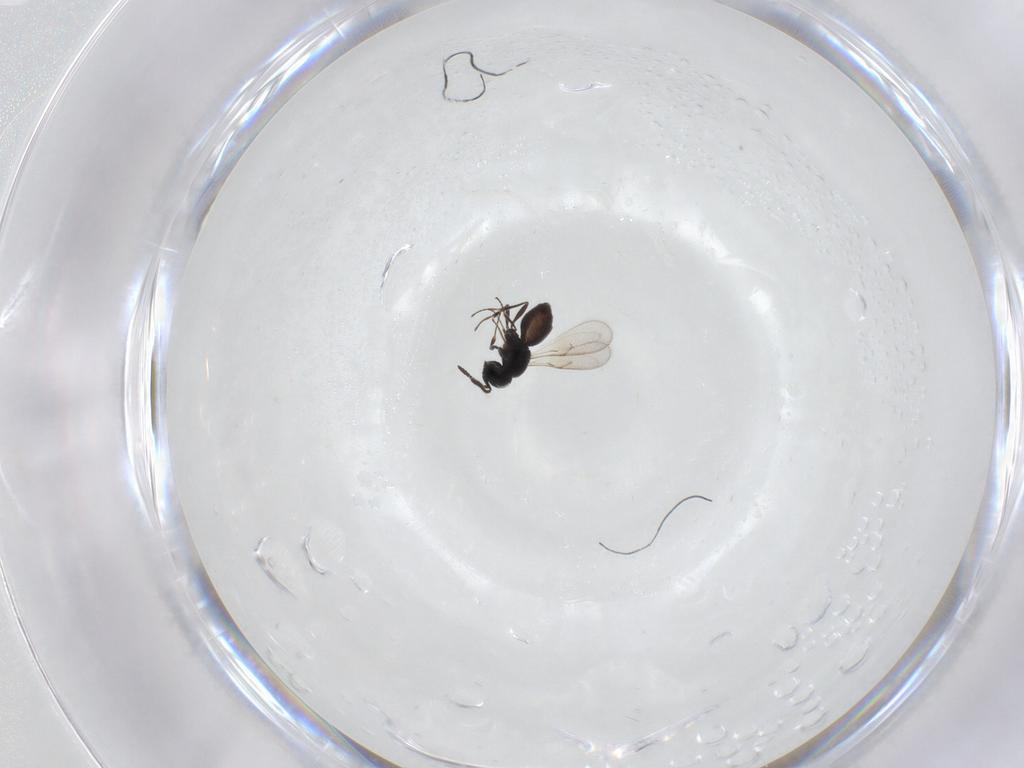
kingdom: Animalia
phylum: Arthropoda
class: Insecta
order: Hymenoptera
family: Scelionidae
